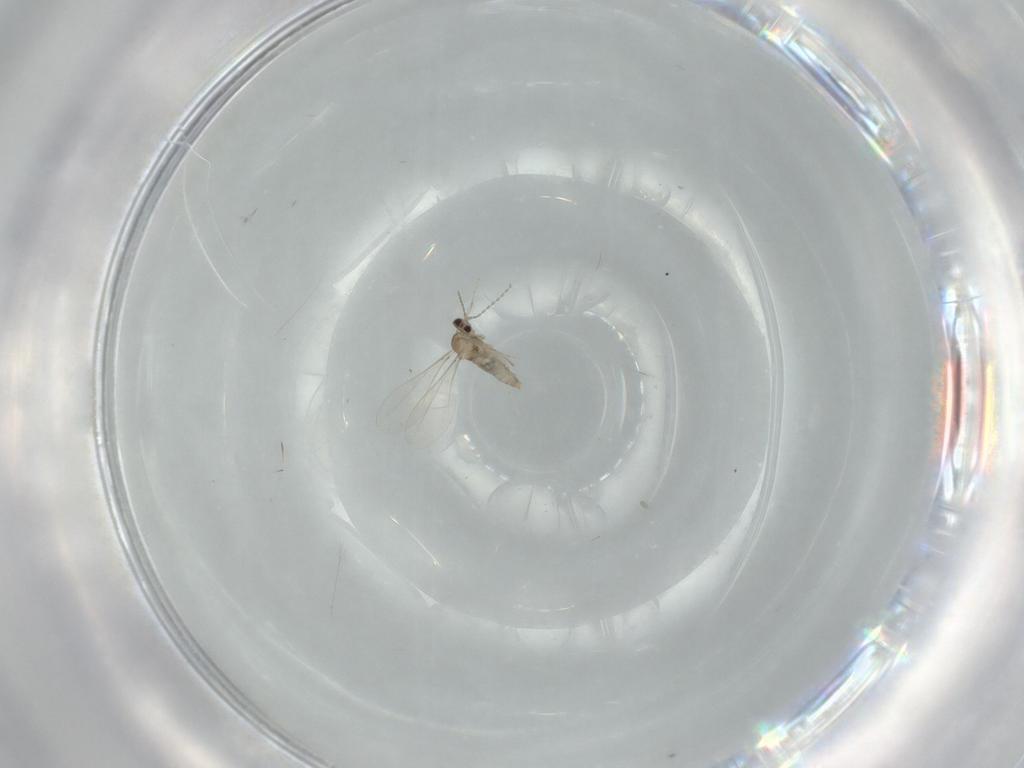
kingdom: Animalia
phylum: Arthropoda
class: Insecta
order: Diptera
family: Cecidomyiidae
